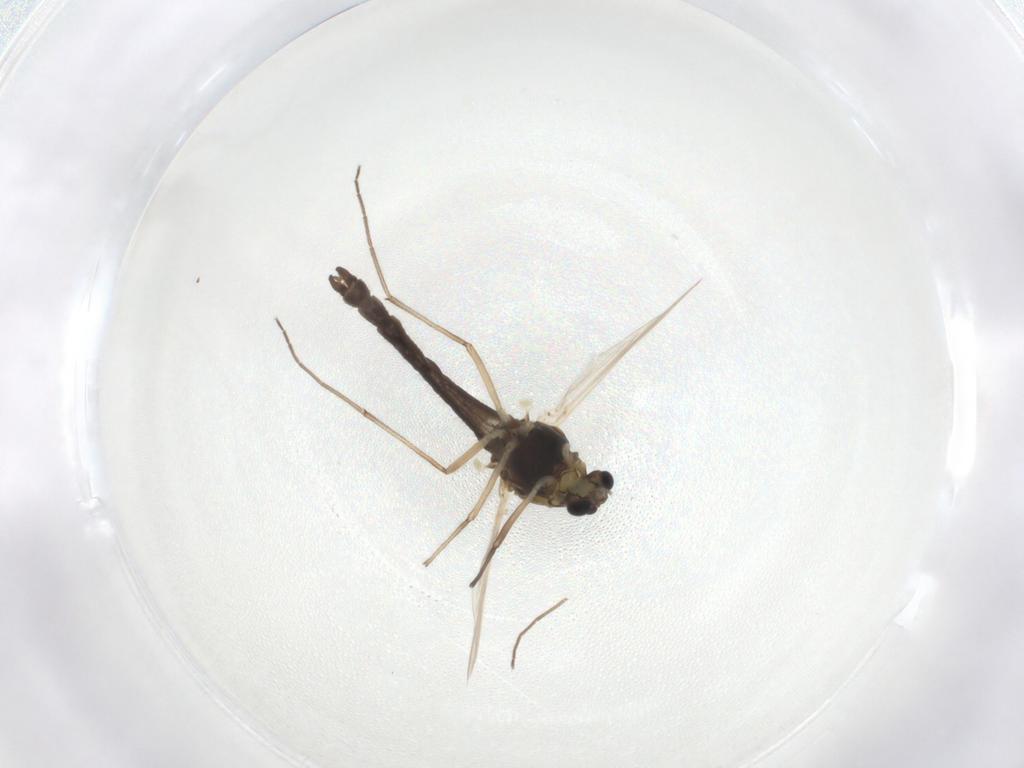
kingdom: Animalia
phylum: Arthropoda
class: Insecta
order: Diptera
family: Chironomidae
